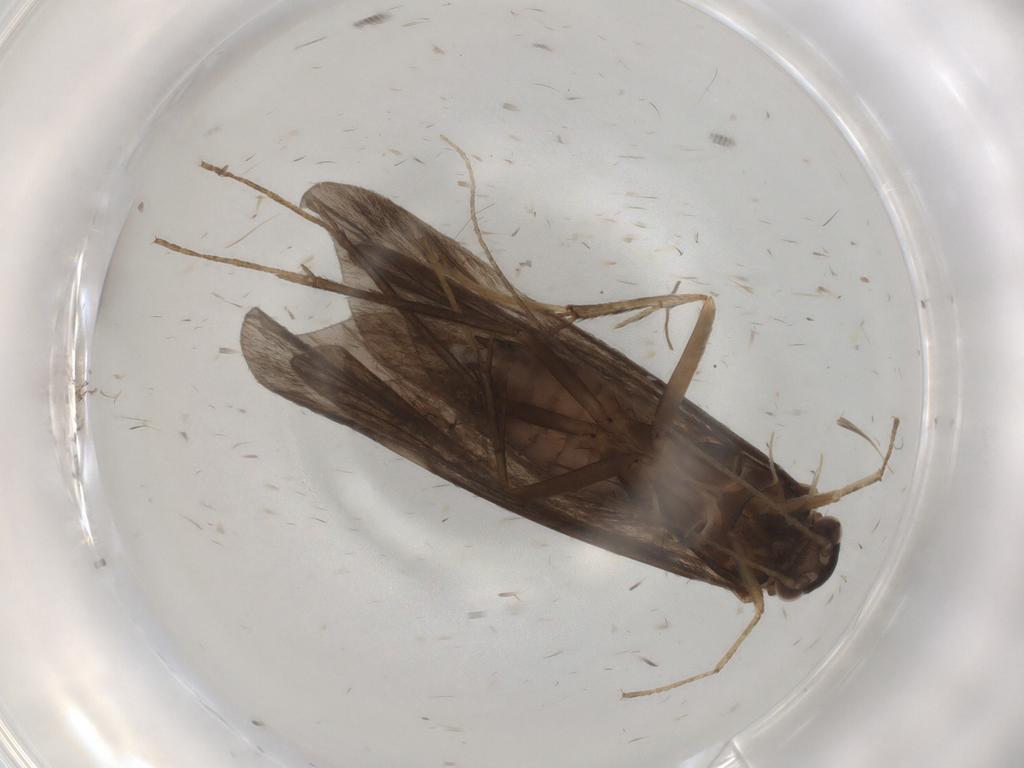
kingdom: Animalia
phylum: Arthropoda
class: Insecta
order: Trichoptera
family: Hydropsychidae
